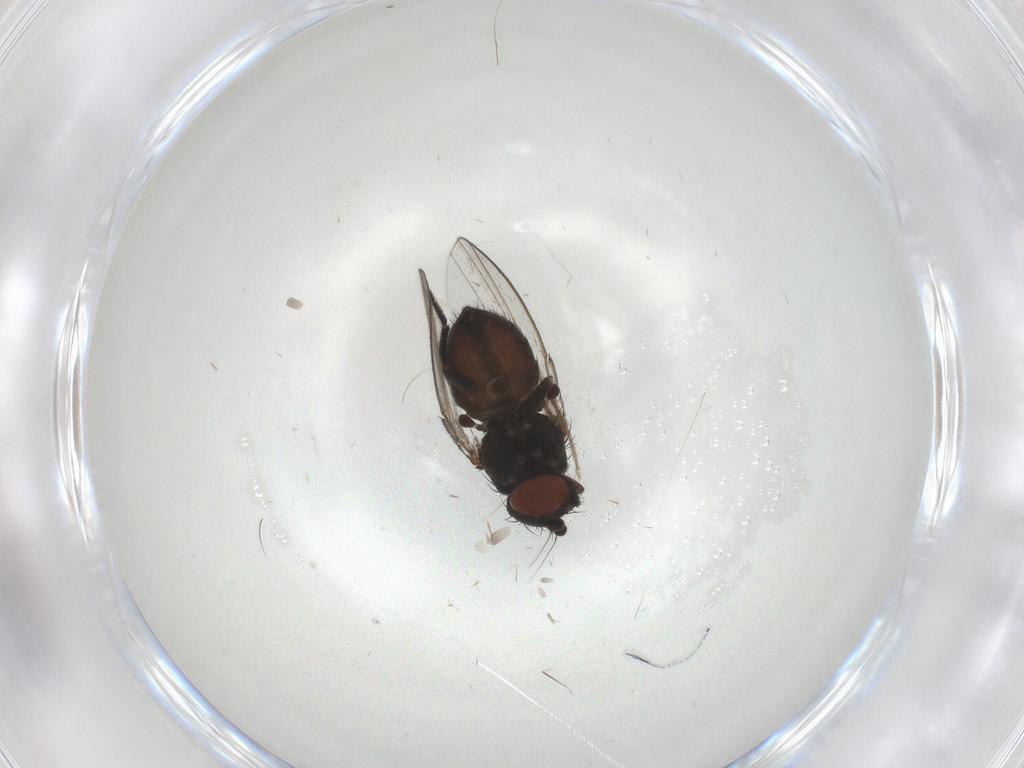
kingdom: Animalia
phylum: Arthropoda
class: Insecta
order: Diptera
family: Milichiidae
